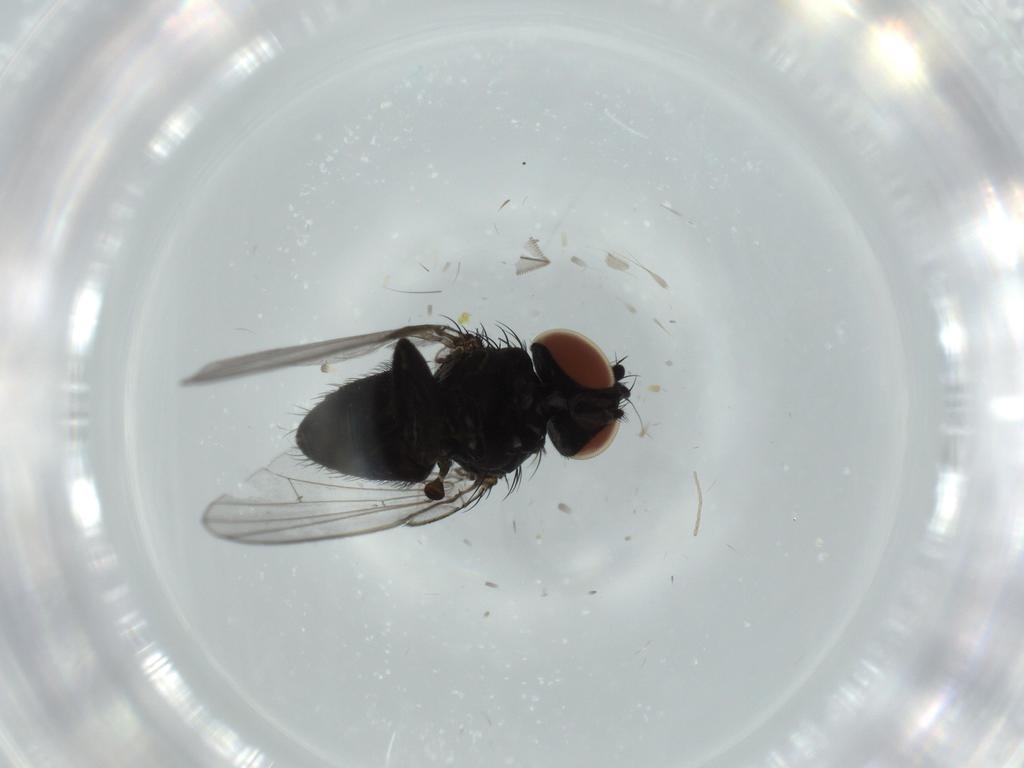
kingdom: Animalia
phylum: Arthropoda
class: Insecta
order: Diptera
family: Milichiidae
